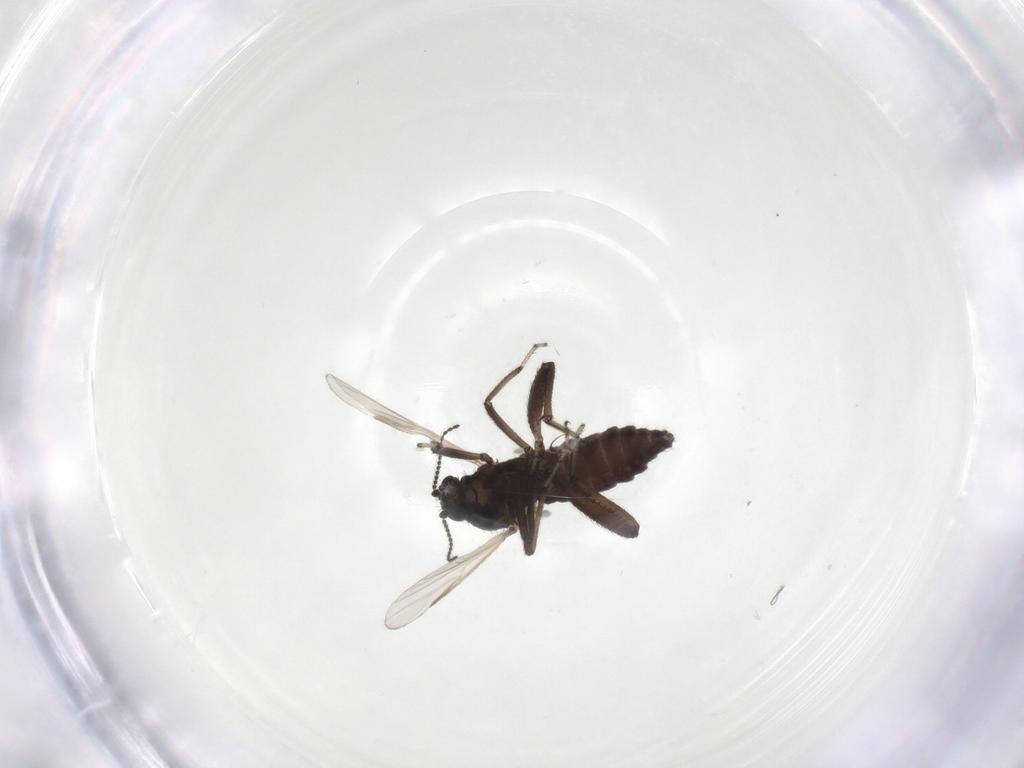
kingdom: Animalia
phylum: Arthropoda
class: Insecta
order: Diptera
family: Ceratopogonidae
